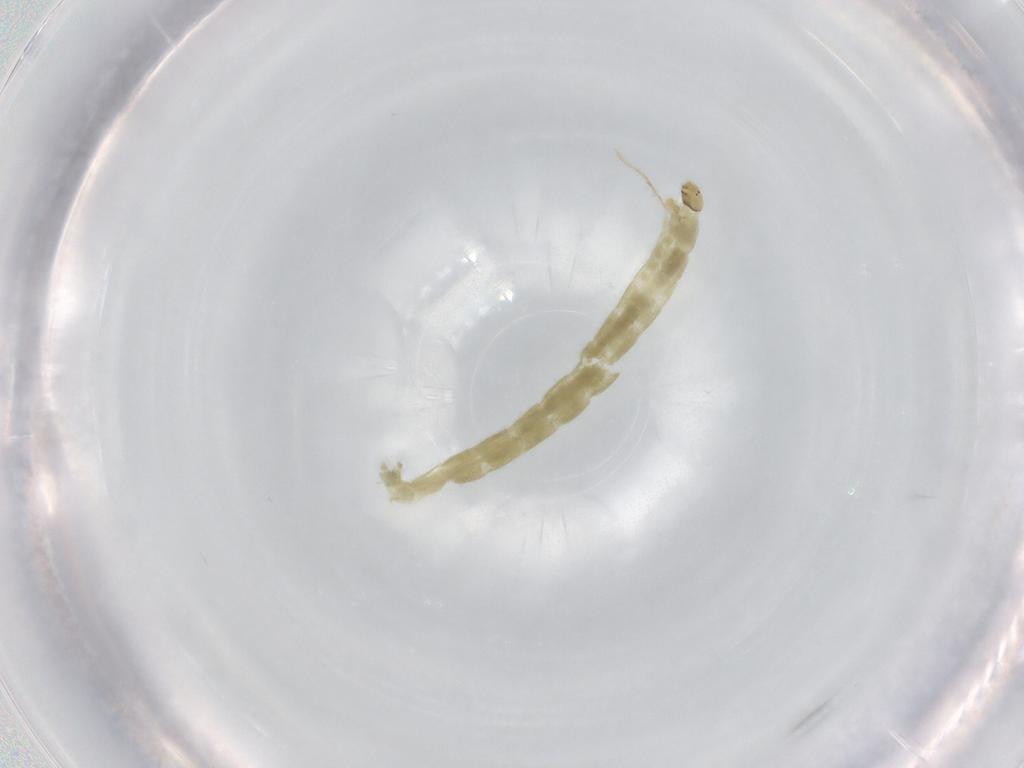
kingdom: Animalia
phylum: Arthropoda
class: Insecta
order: Diptera
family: Chironomidae
